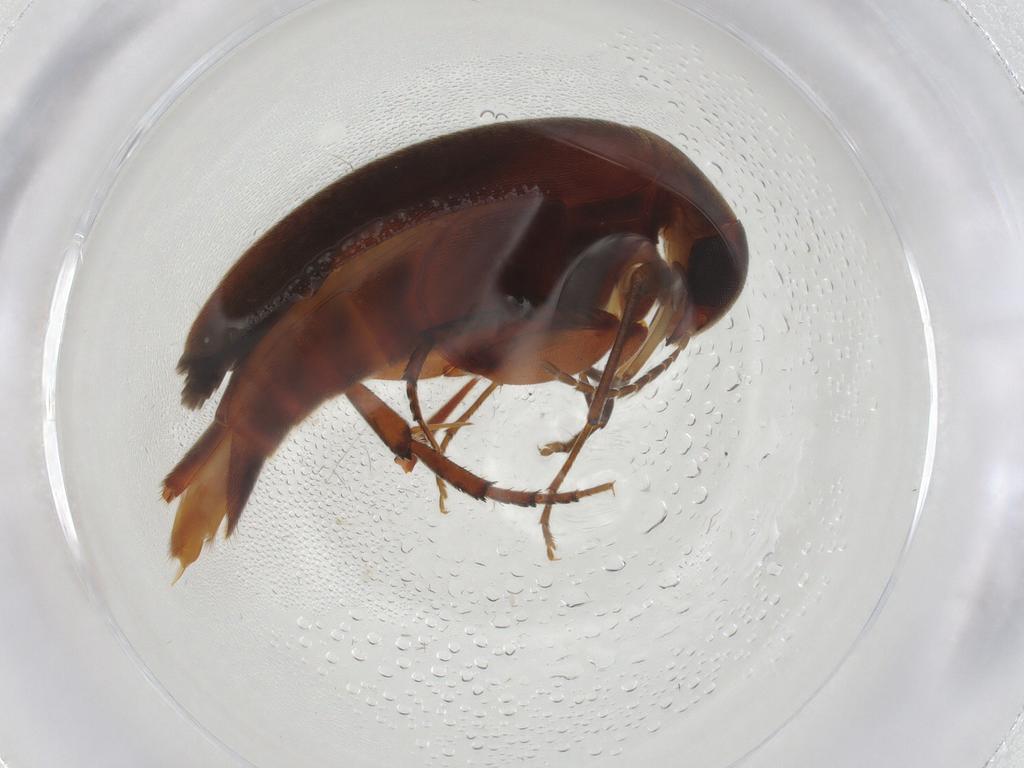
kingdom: Animalia
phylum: Arthropoda
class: Insecta
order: Coleoptera
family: Mordellidae
